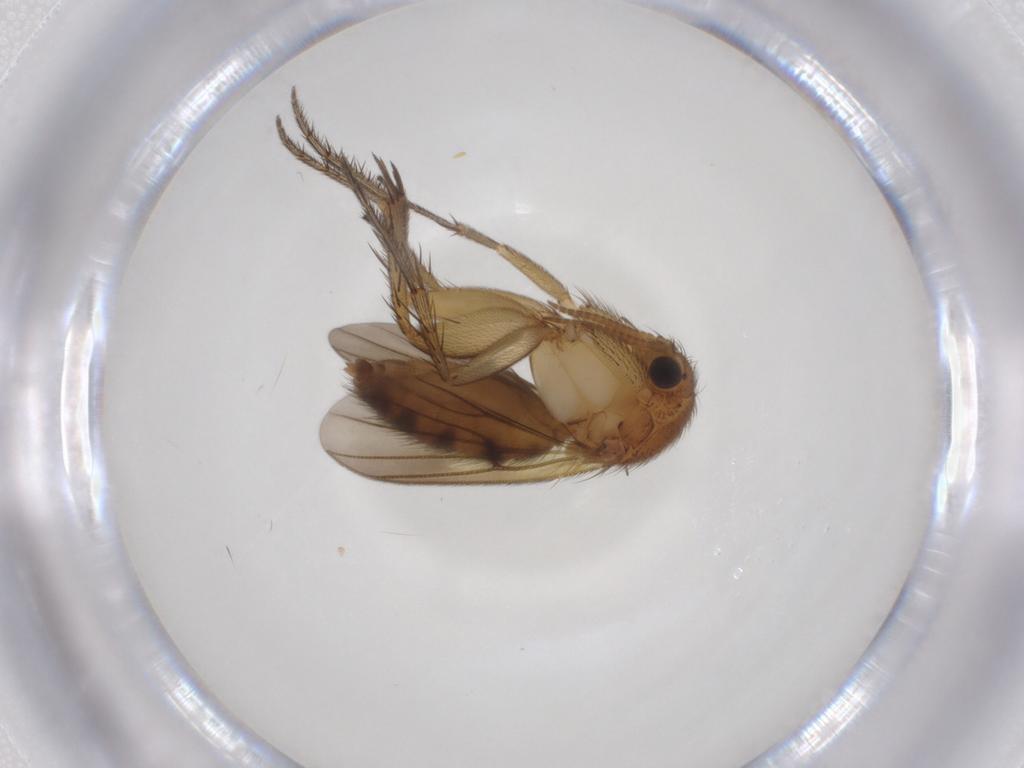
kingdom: Animalia
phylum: Arthropoda
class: Insecta
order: Diptera
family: Mycetophilidae
